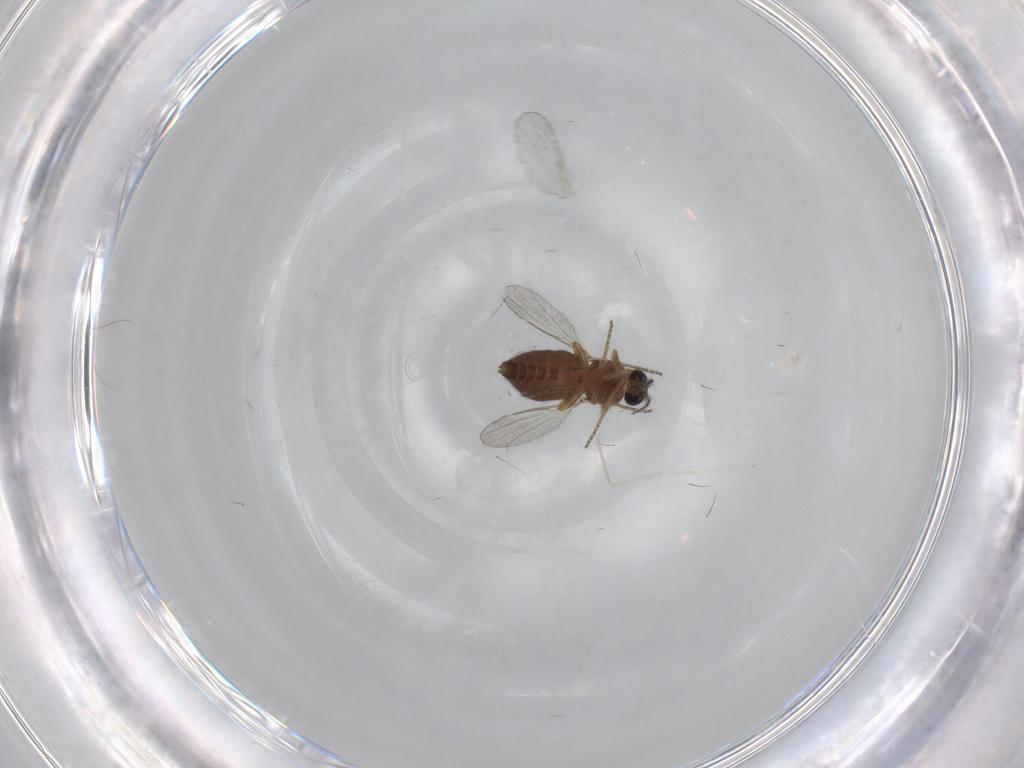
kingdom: Animalia
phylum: Arthropoda
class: Insecta
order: Diptera
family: Ceratopogonidae
